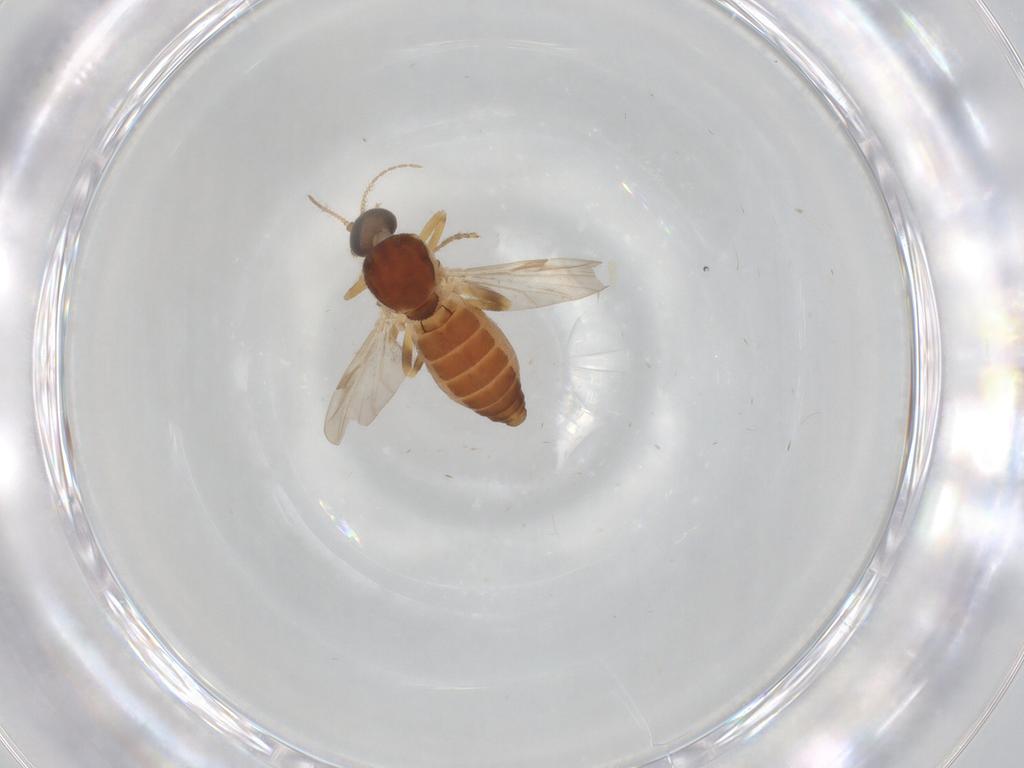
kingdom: Animalia
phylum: Arthropoda
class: Insecta
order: Diptera
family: Ceratopogonidae
